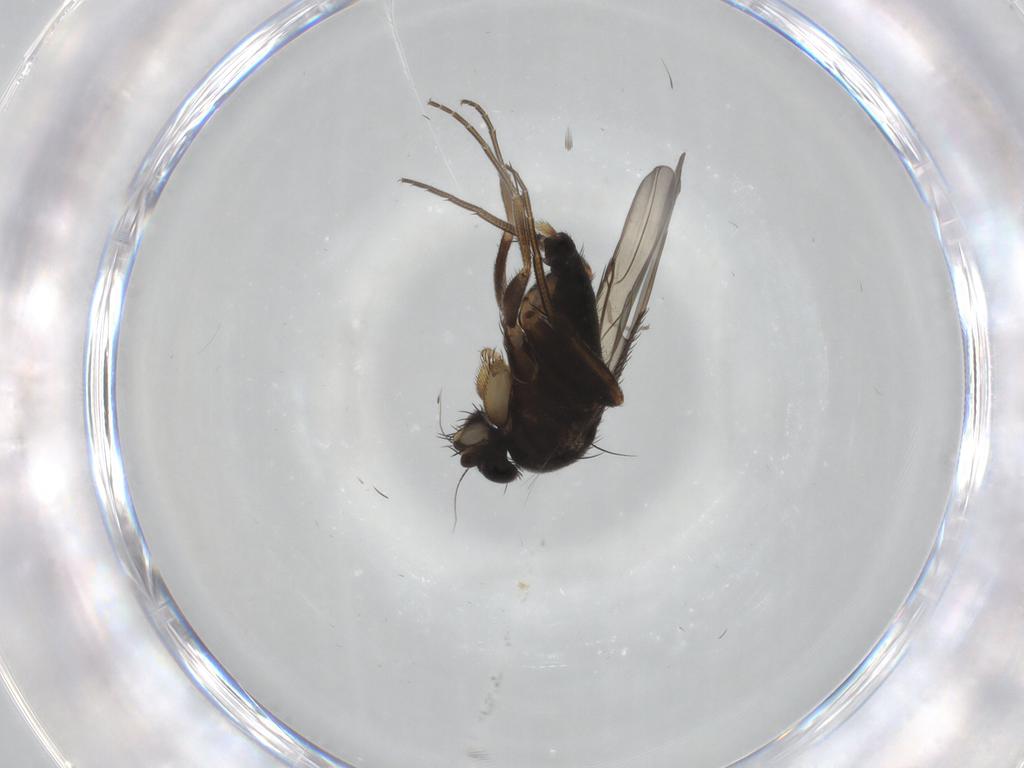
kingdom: Animalia
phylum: Arthropoda
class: Insecta
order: Diptera
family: Phoridae
